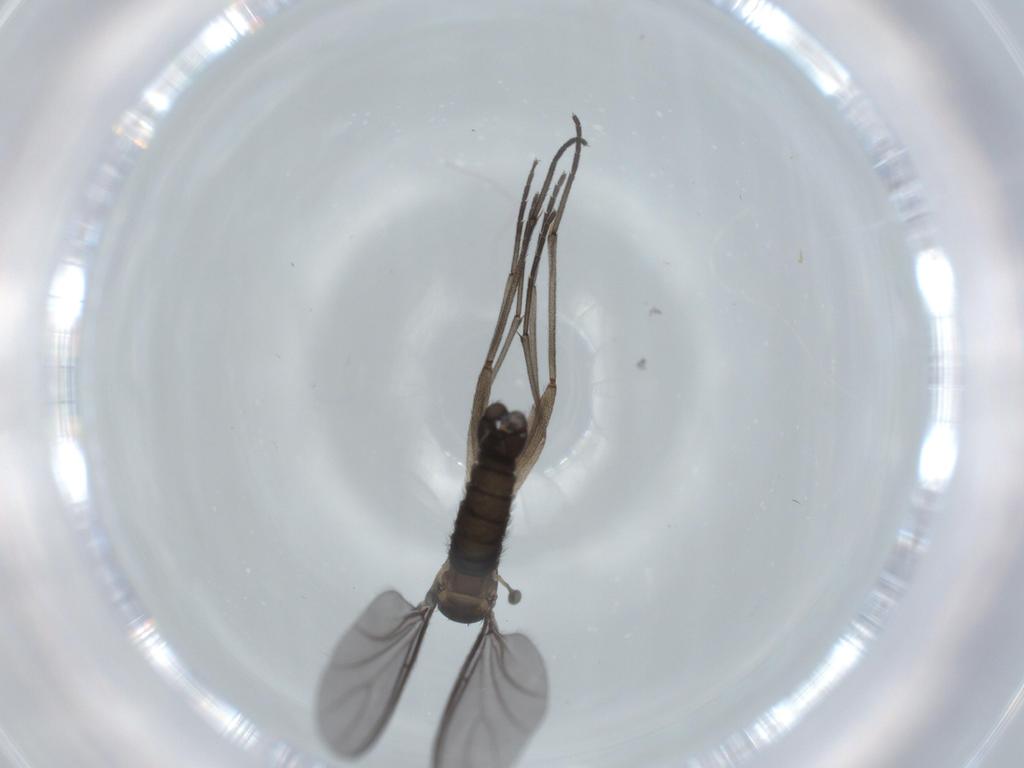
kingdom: Animalia
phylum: Arthropoda
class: Insecta
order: Diptera
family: Sciaridae
